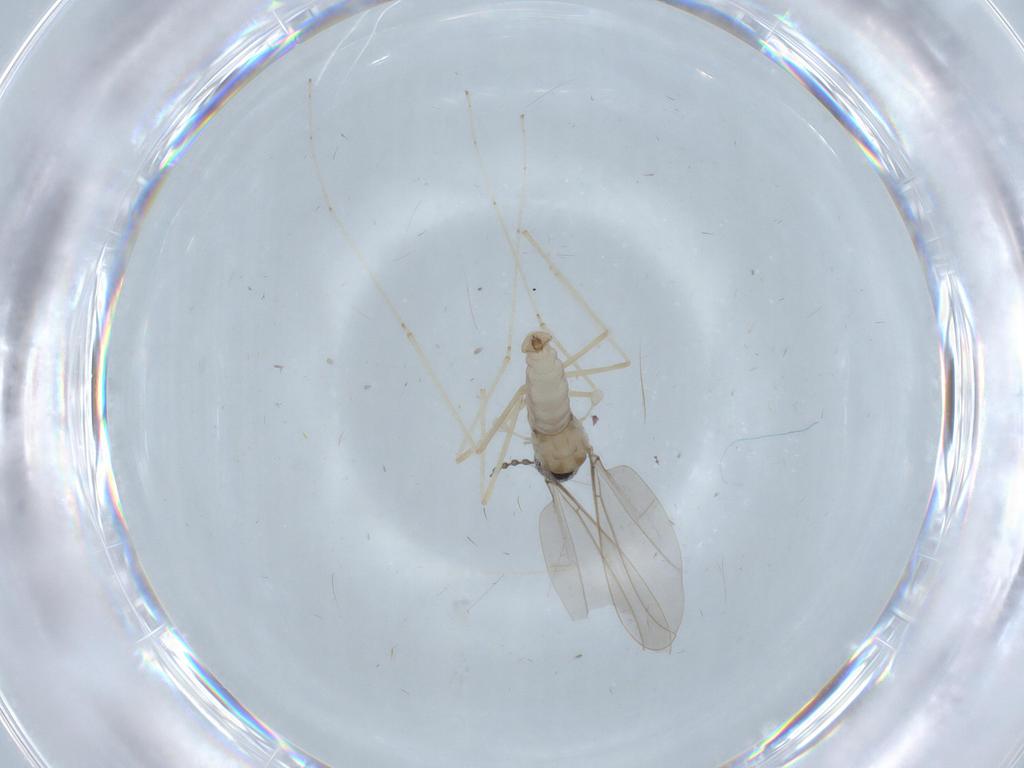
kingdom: Animalia
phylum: Arthropoda
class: Insecta
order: Diptera
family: Cecidomyiidae
